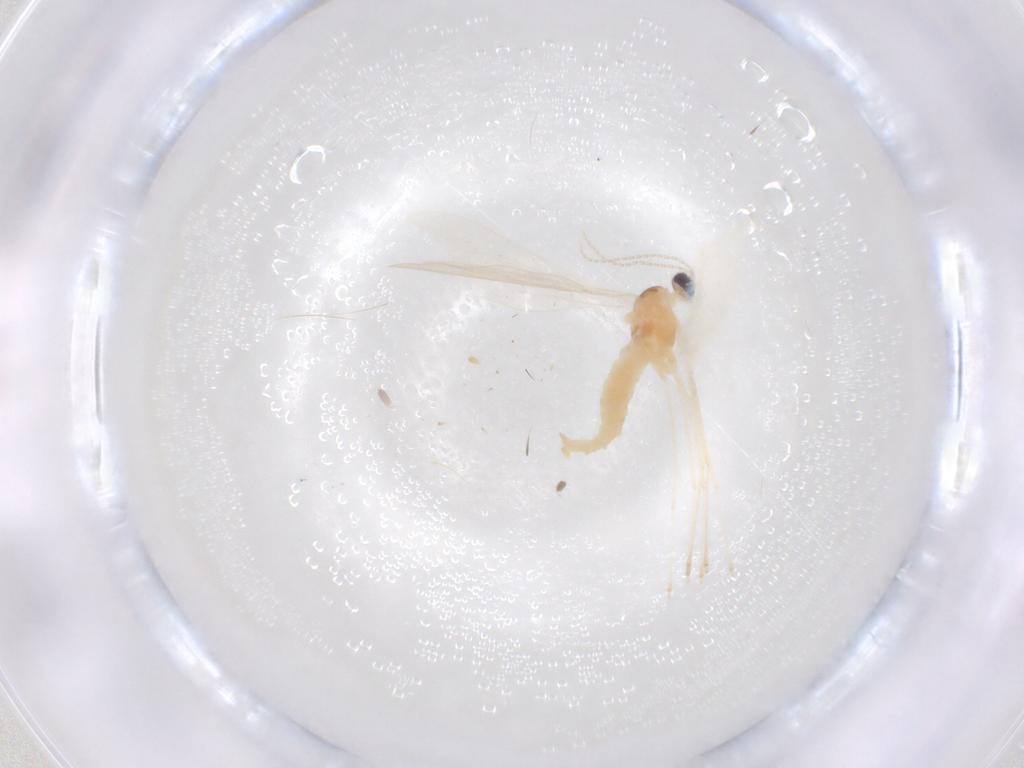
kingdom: Animalia
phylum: Arthropoda
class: Insecta
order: Diptera
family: Cecidomyiidae
